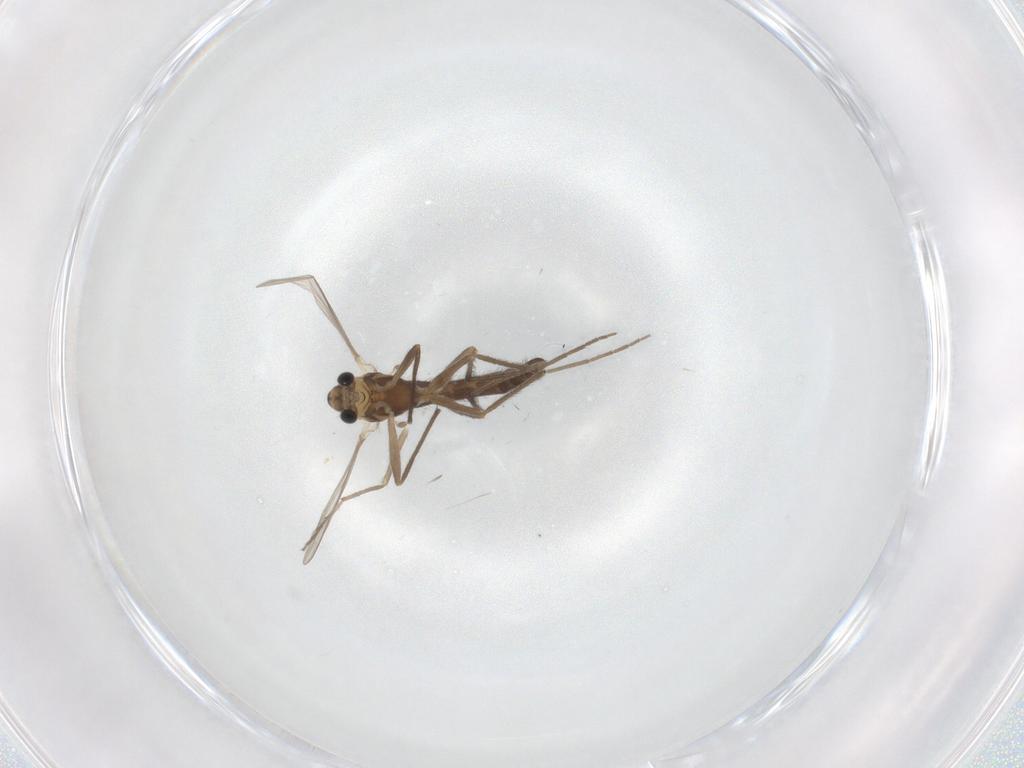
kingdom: Animalia
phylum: Arthropoda
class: Insecta
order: Diptera
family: Chironomidae
